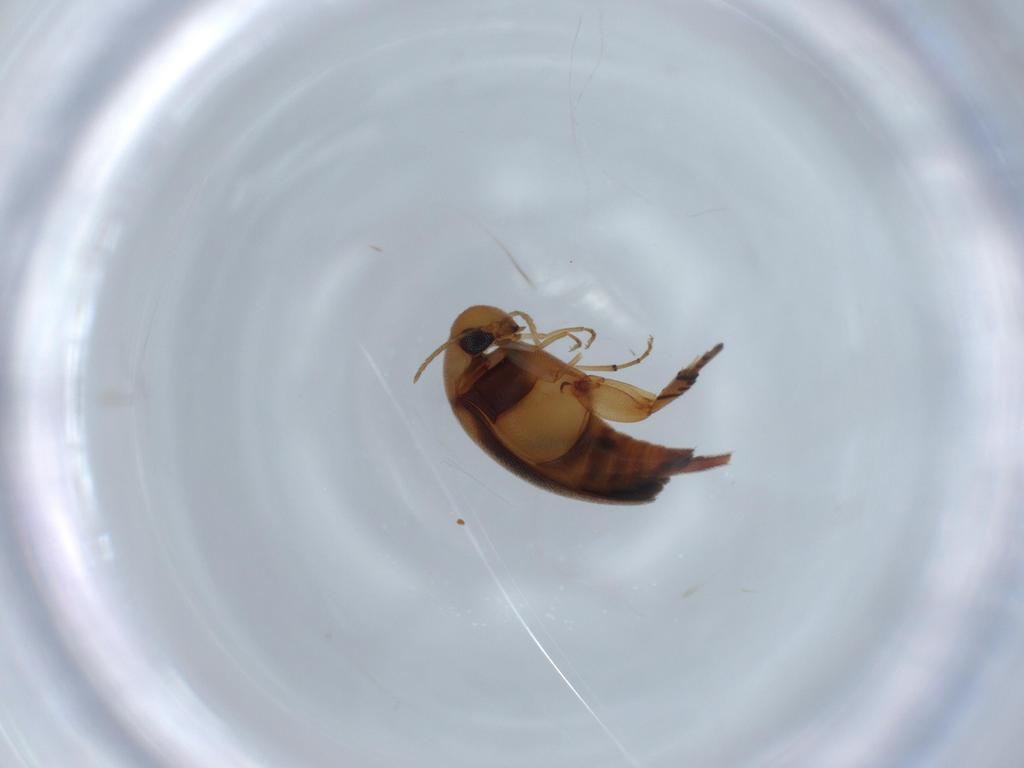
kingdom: Animalia
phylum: Arthropoda
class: Insecta
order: Coleoptera
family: Mordellidae
